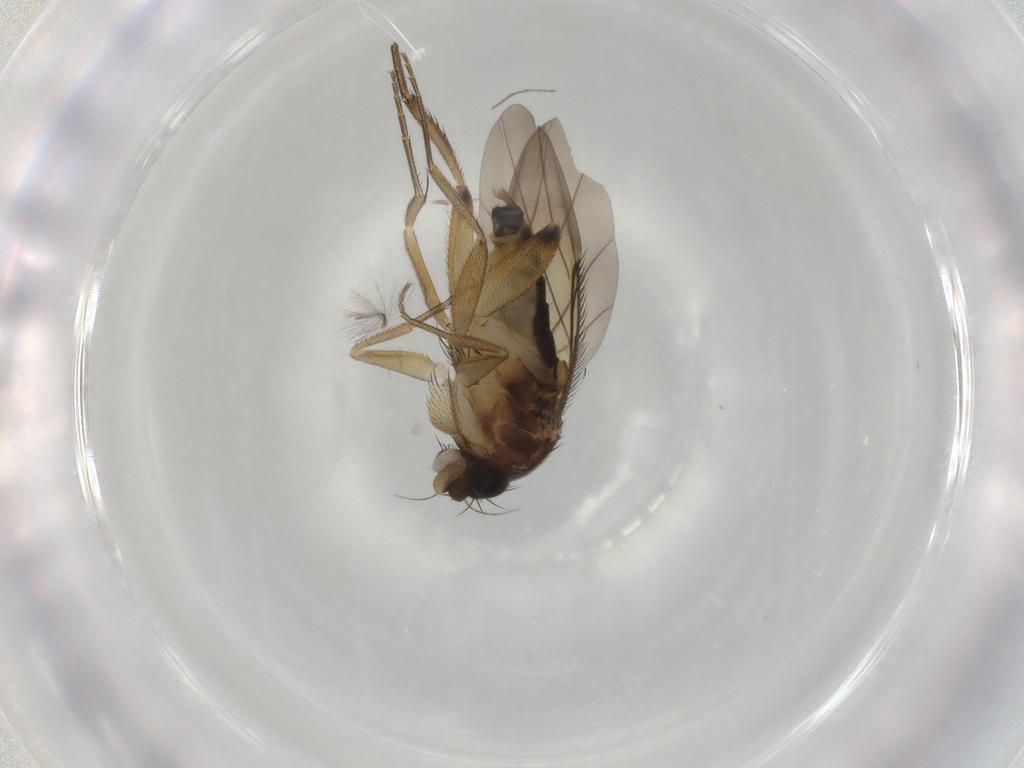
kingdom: Animalia
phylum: Arthropoda
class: Insecta
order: Diptera
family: Phoridae
